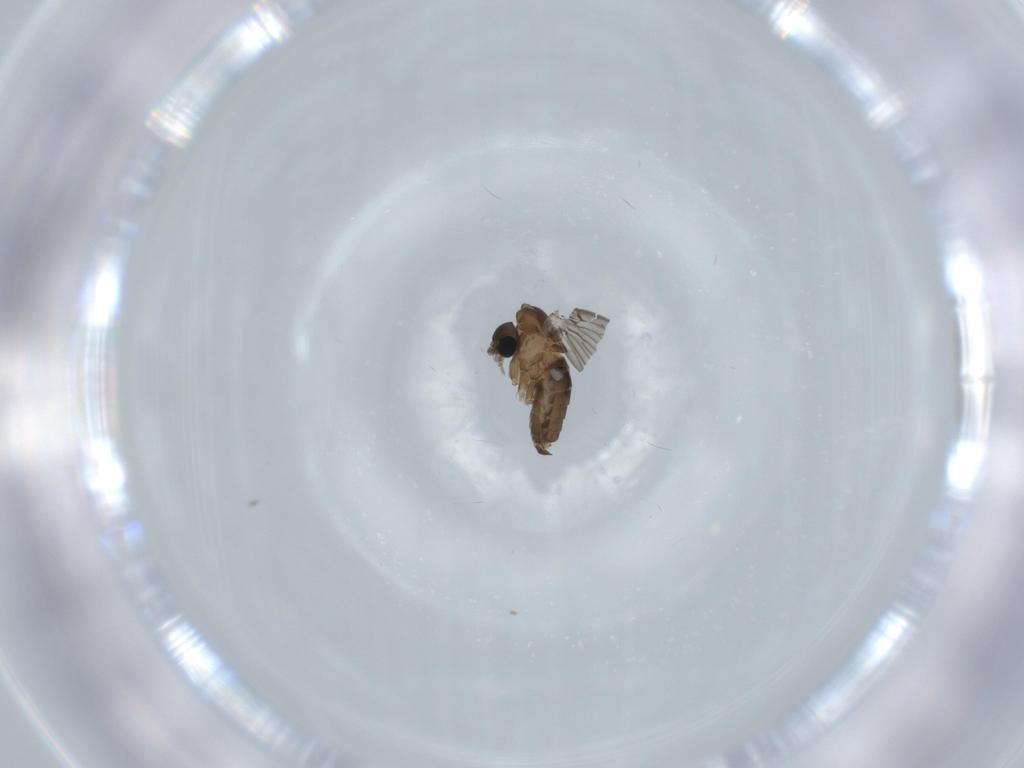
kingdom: Animalia
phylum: Arthropoda
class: Insecta
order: Diptera
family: Psychodidae
